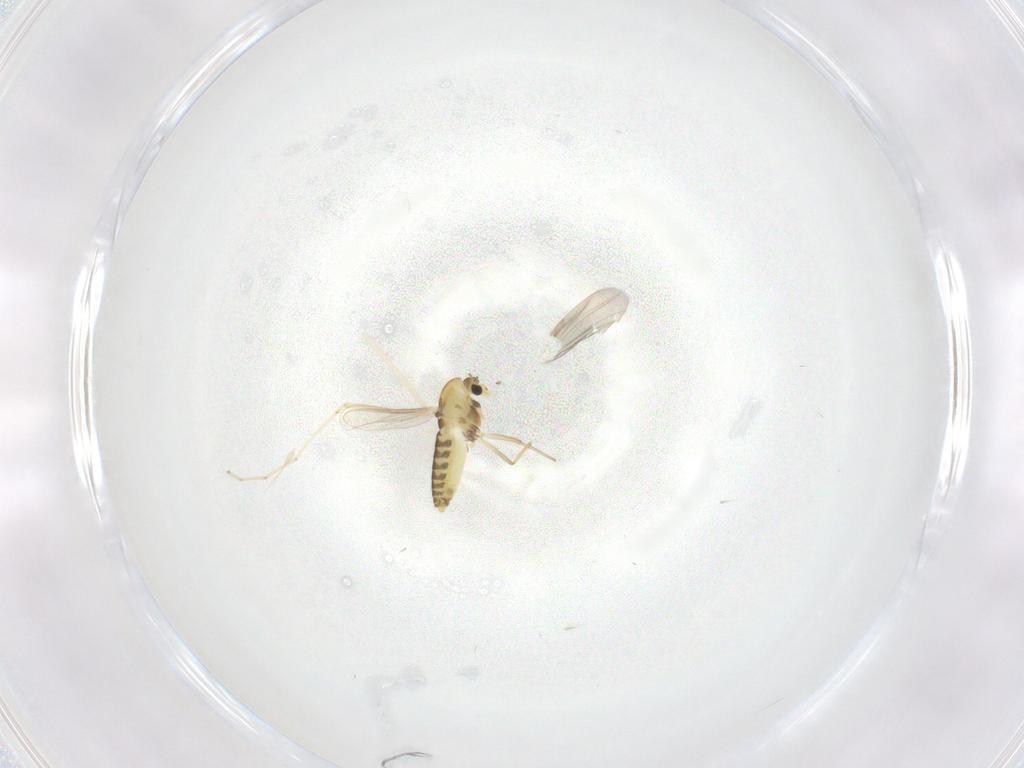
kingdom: Animalia
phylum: Arthropoda
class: Insecta
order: Diptera
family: Chironomidae
